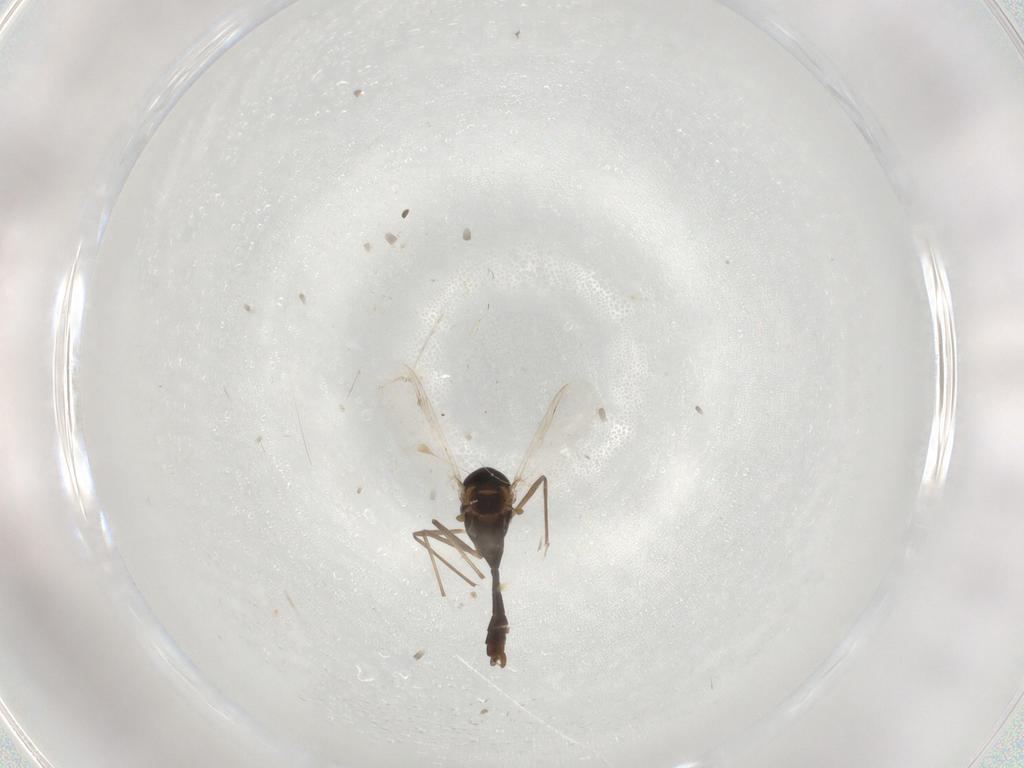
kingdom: Animalia
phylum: Arthropoda
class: Insecta
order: Diptera
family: Chironomidae
